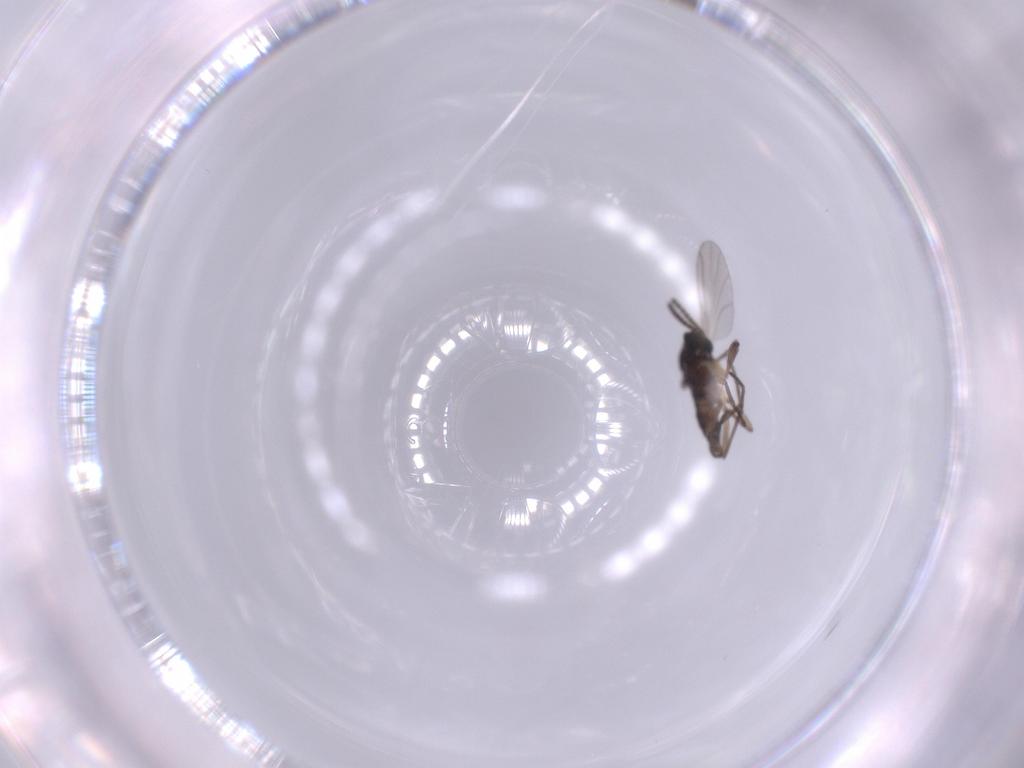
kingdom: Animalia
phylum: Arthropoda
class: Insecta
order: Diptera
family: Sciaridae
